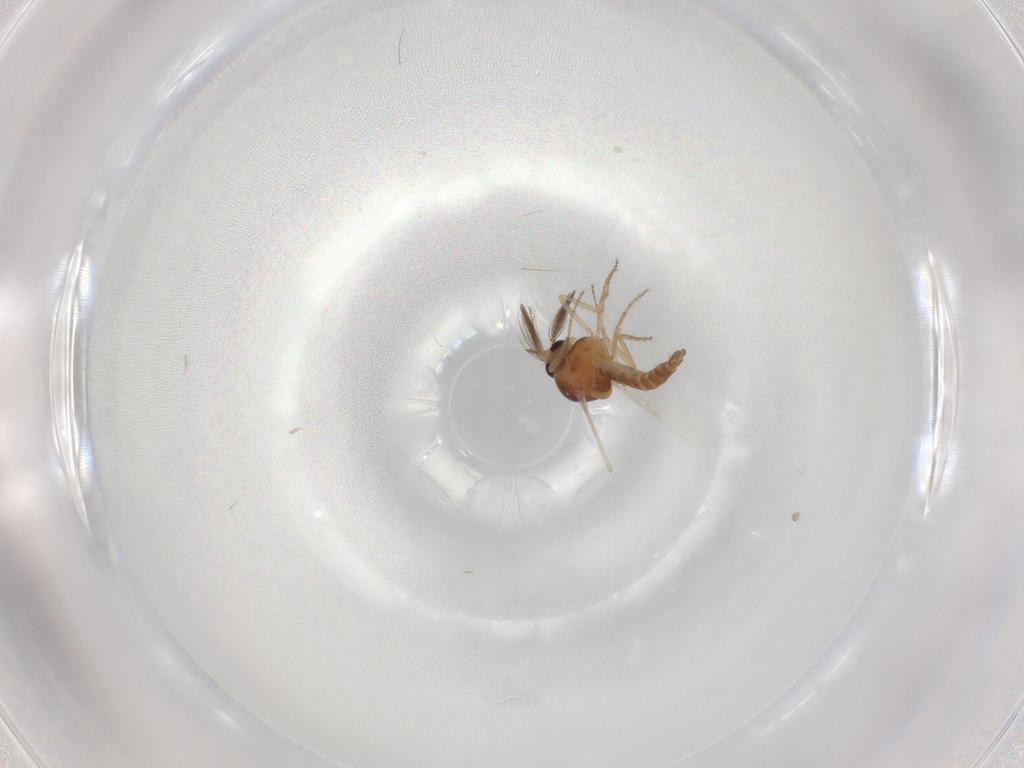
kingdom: Animalia
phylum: Arthropoda
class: Insecta
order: Diptera
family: Ceratopogonidae
